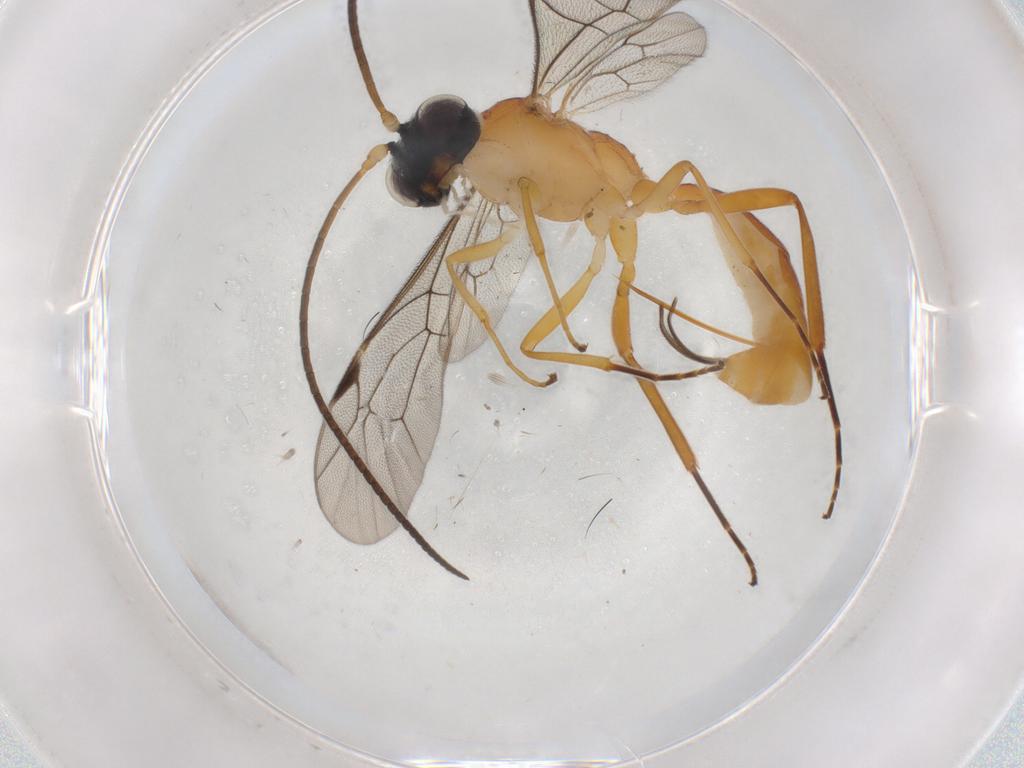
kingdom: Animalia
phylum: Arthropoda
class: Insecta
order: Hymenoptera
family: Ichneumonidae
